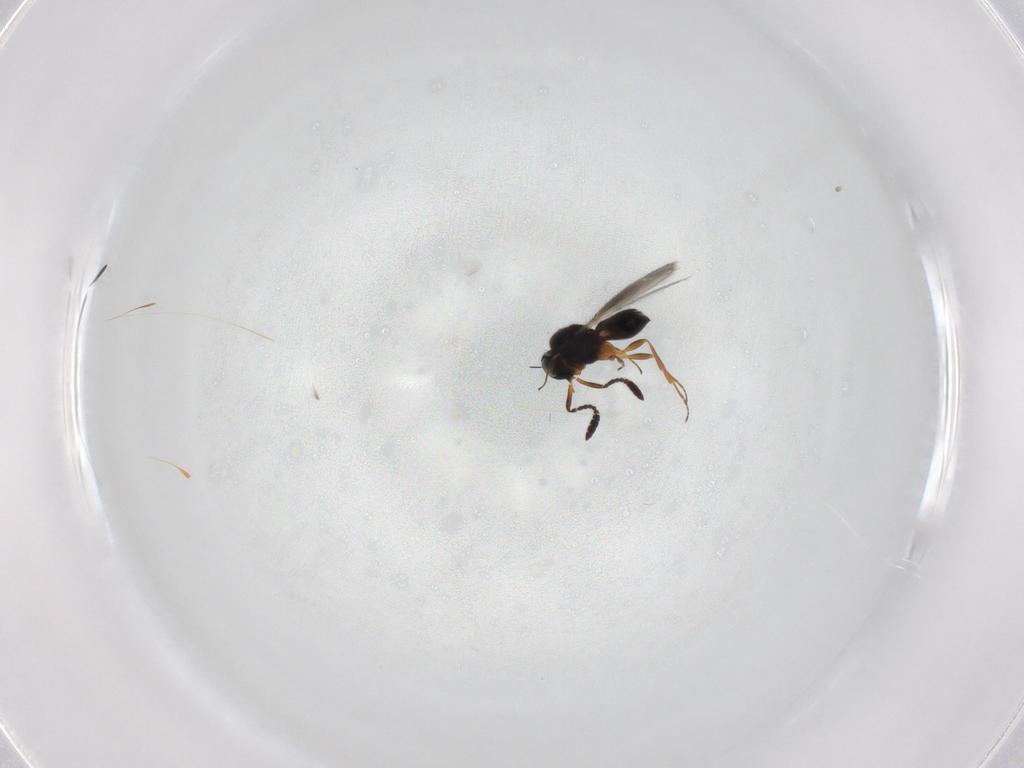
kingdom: Animalia
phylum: Arthropoda
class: Insecta
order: Hymenoptera
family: Scelionidae
